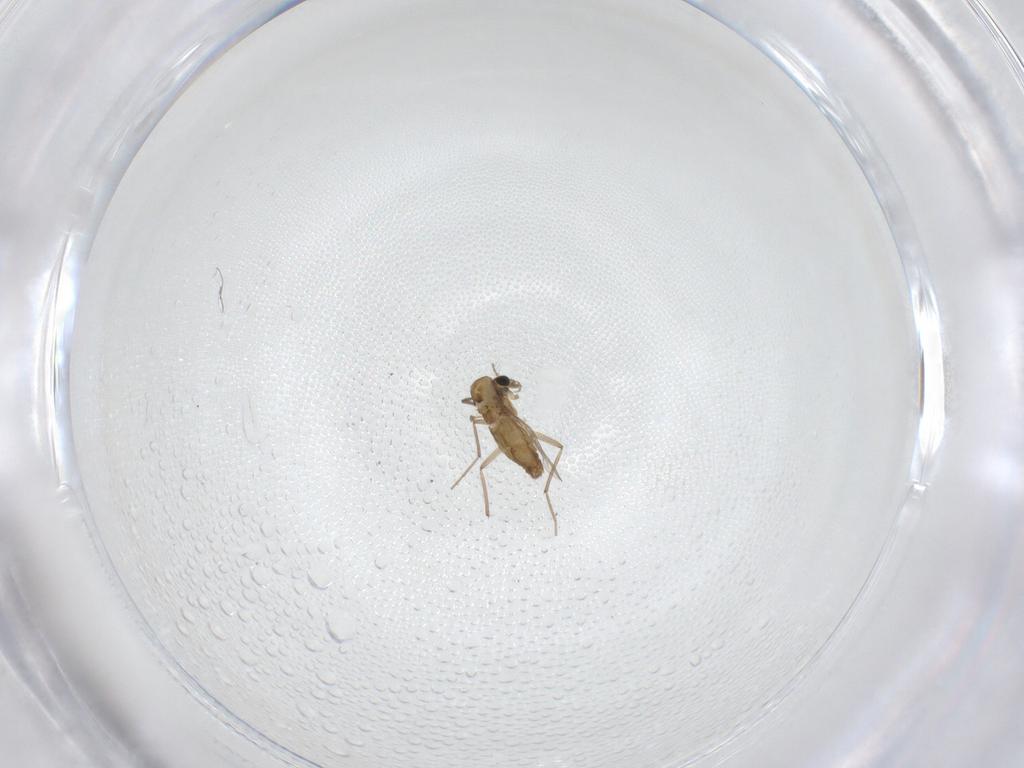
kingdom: Animalia
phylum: Arthropoda
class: Insecta
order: Diptera
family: Chironomidae
